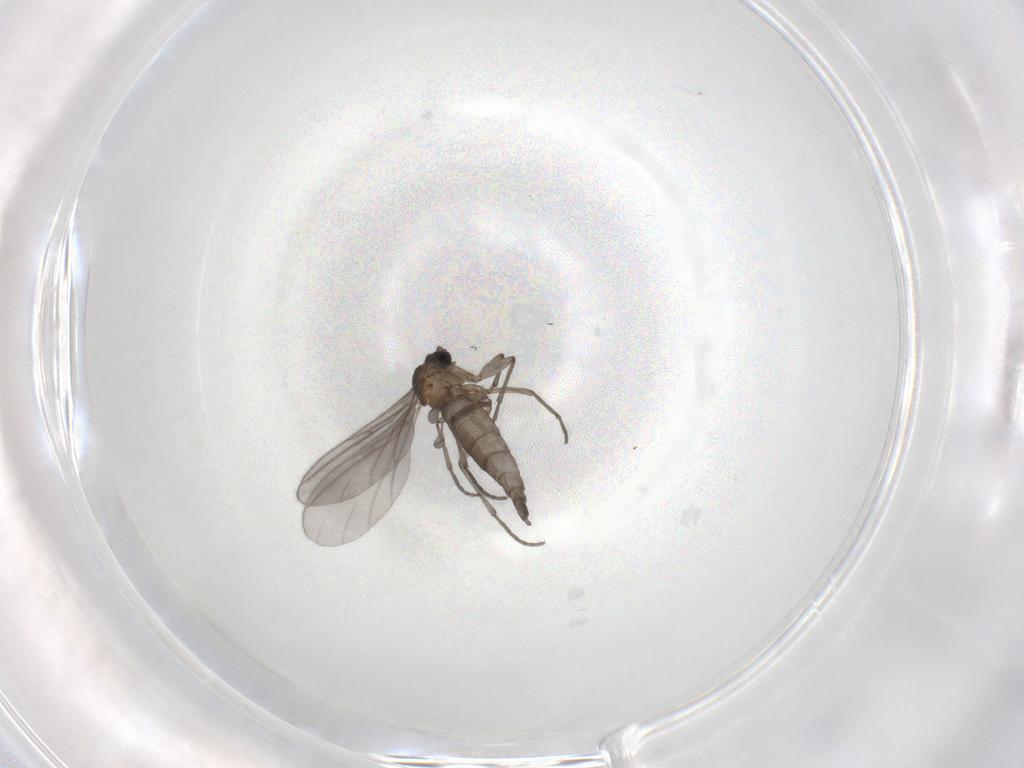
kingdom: Animalia
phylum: Arthropoda
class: Insecta
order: Diptera
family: Sciaridae
